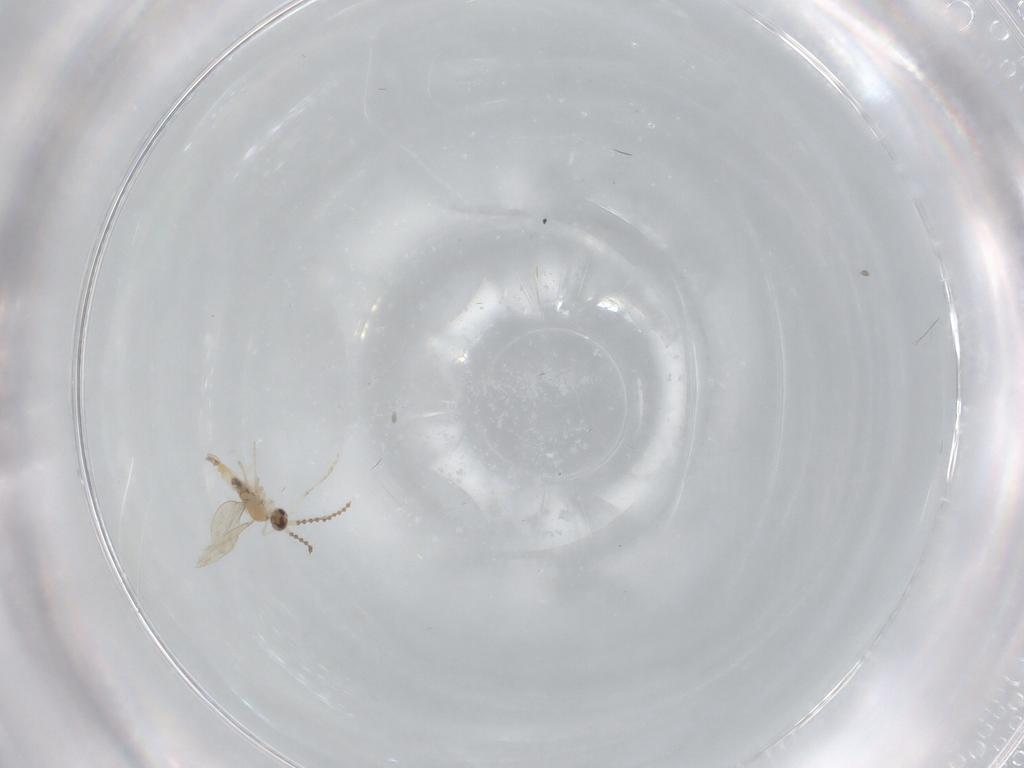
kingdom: Animalia
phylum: Arthropoda
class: Insecta
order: Diptera
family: Cecidomyiidae
